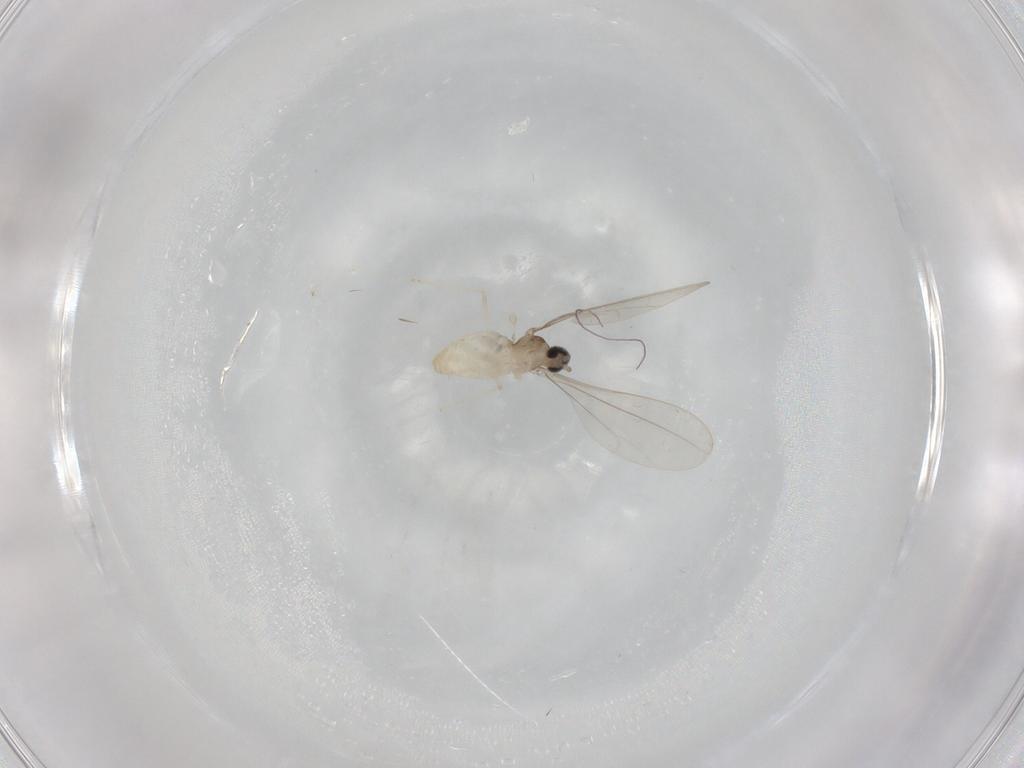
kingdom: Animalia
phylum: Arthropoda
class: Insecta
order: Diptera
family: Cecidomyiidae
